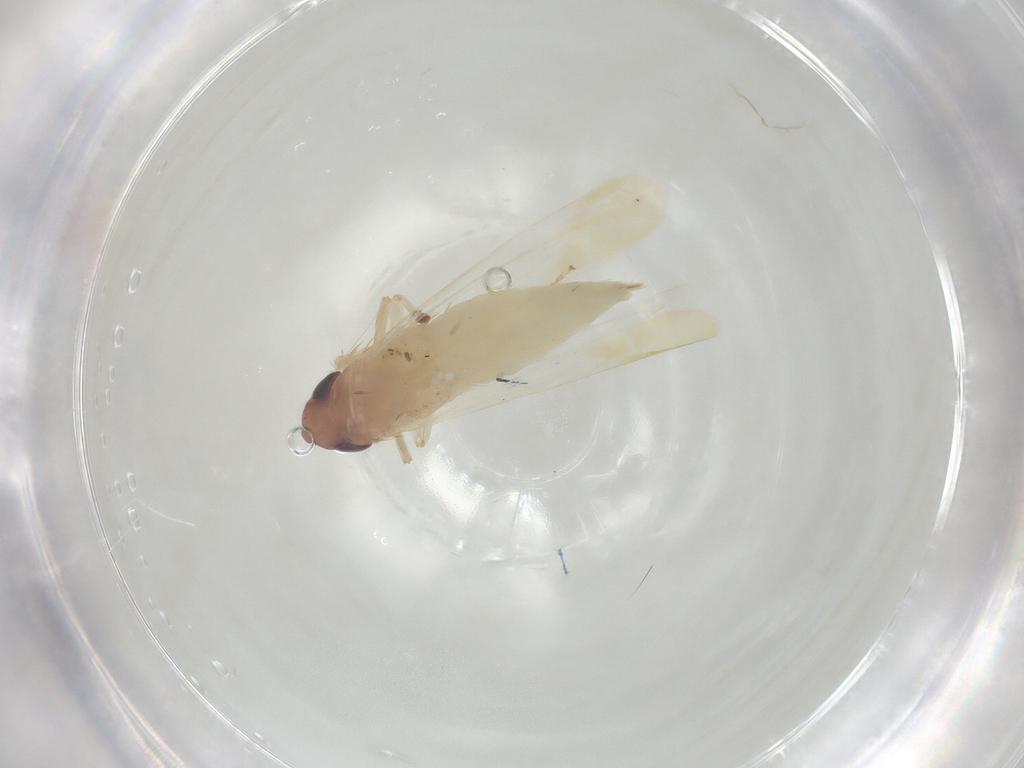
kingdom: Animalia
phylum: Arthropoda
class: Insecta
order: Hemiptera
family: Cicadellidae
